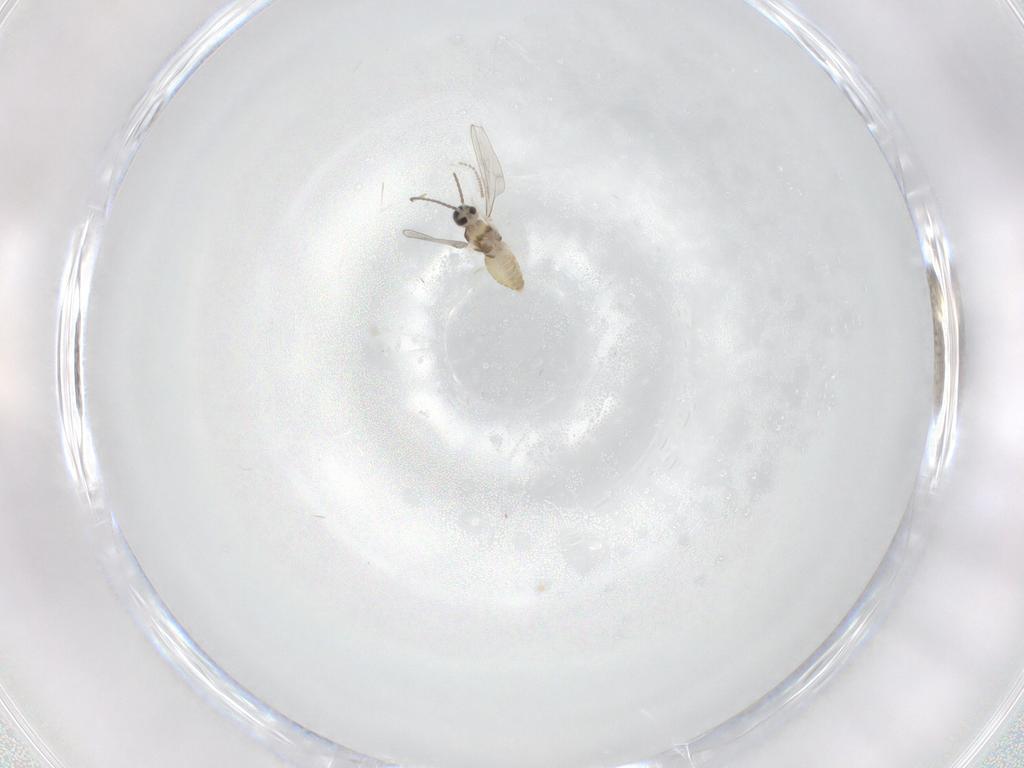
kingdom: Animalia
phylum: Arthropoda
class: Insecta
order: Diptera
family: Cecidomyiidae
